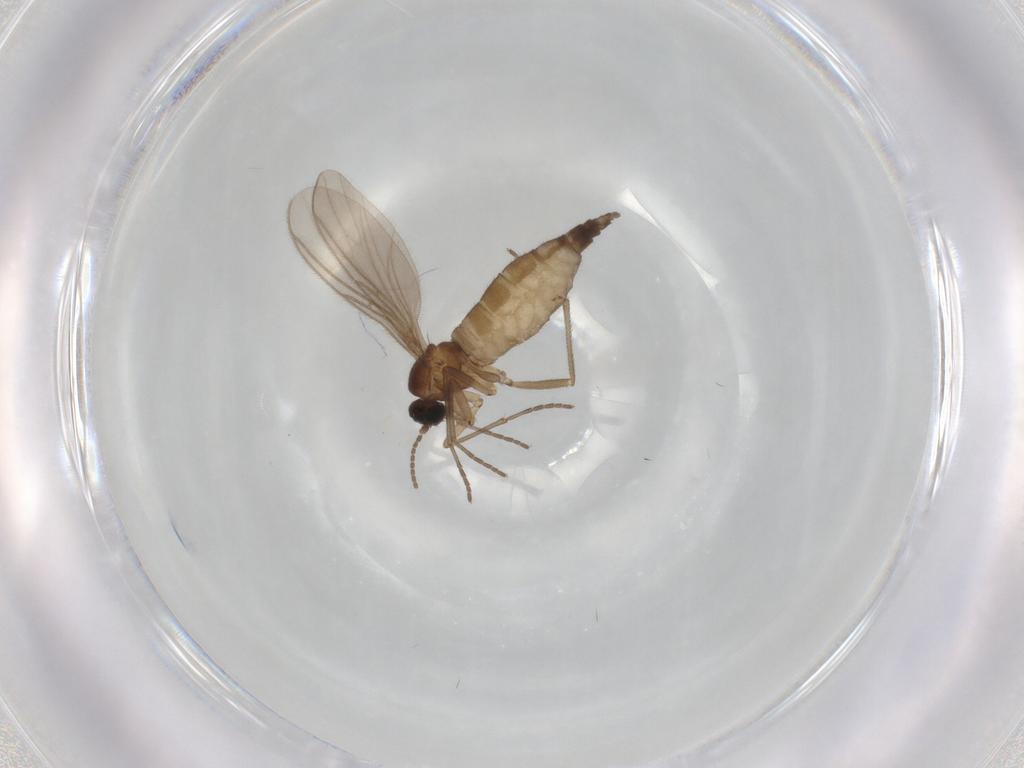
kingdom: Animalia
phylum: Arthropoda
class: Insecta
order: Diptera
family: Sciaridae
